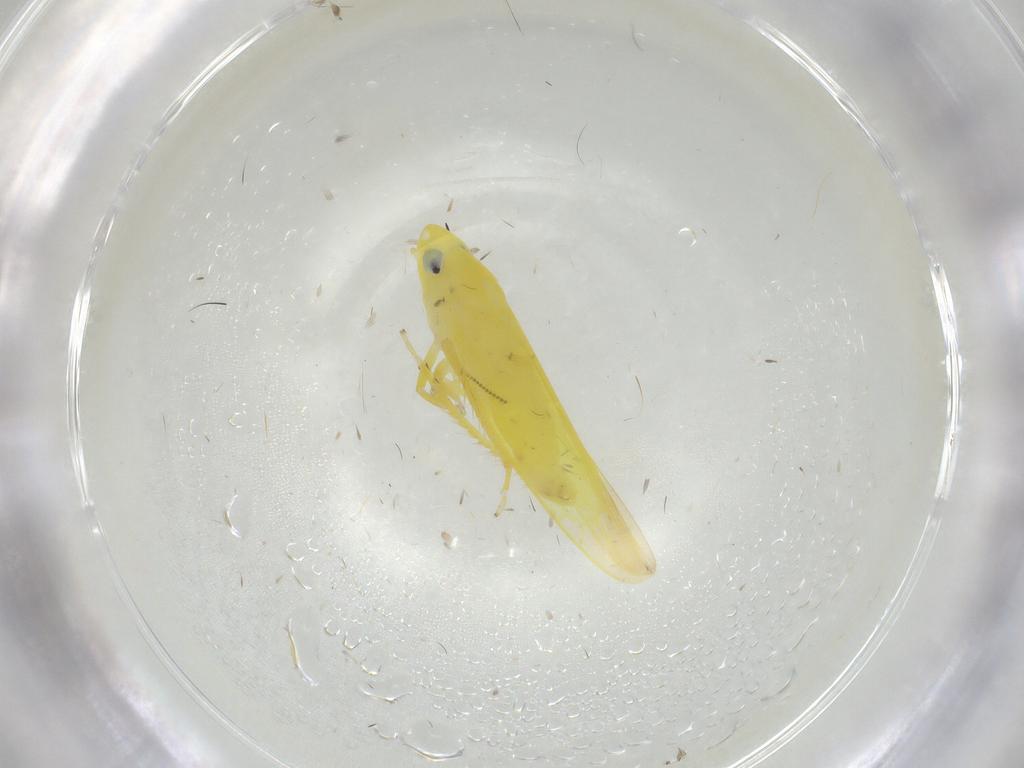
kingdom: Animalia
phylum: Arthropoda
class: Insecta
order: Hemiptera
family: Cicadellidae
